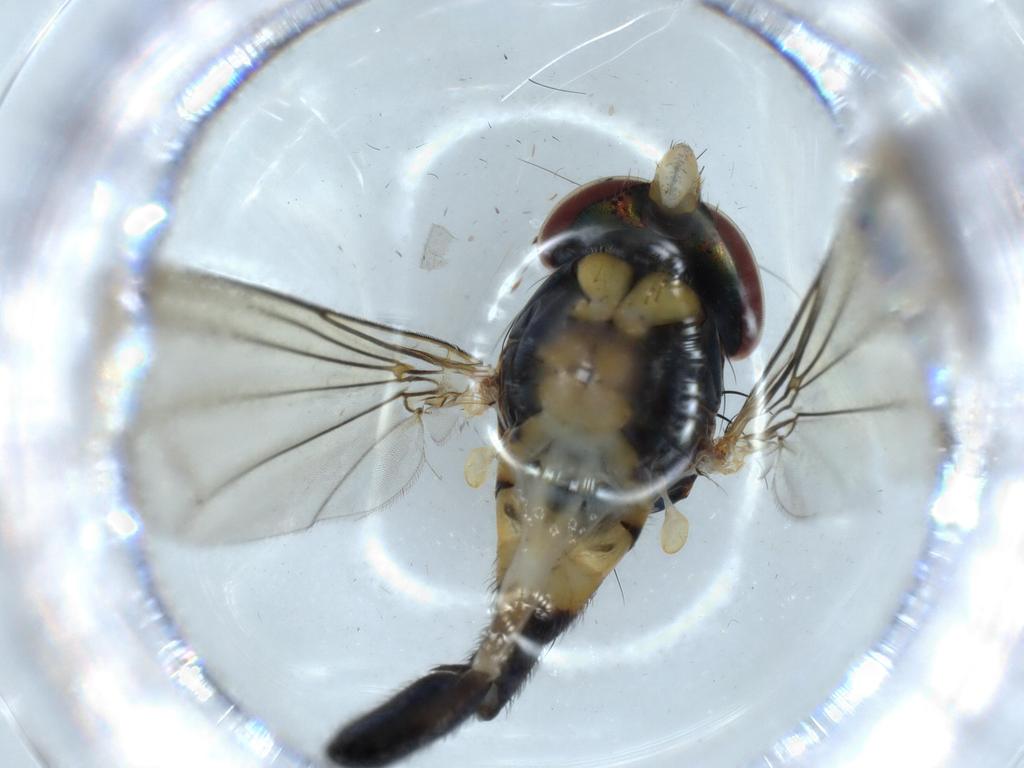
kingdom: Animalia
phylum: Arthropoda
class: Insecta
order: Diptera
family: Dolichopodidae
